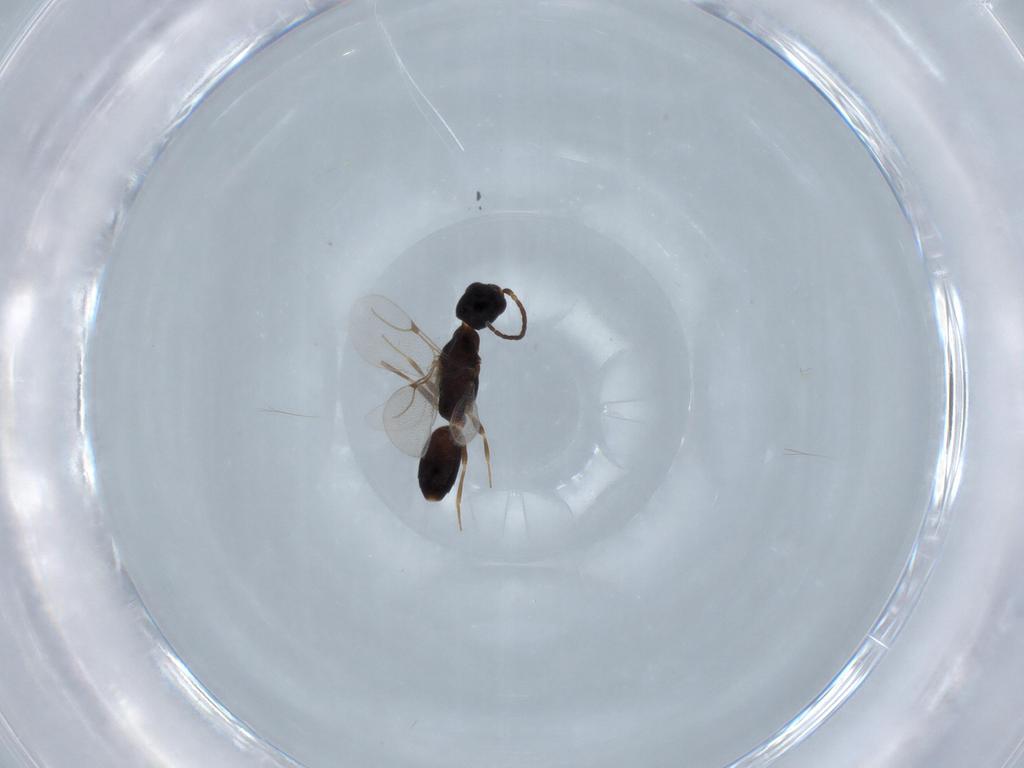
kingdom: Animalia
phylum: Arthropoda
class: Insecta
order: Hymenoptera
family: Bethylidae
